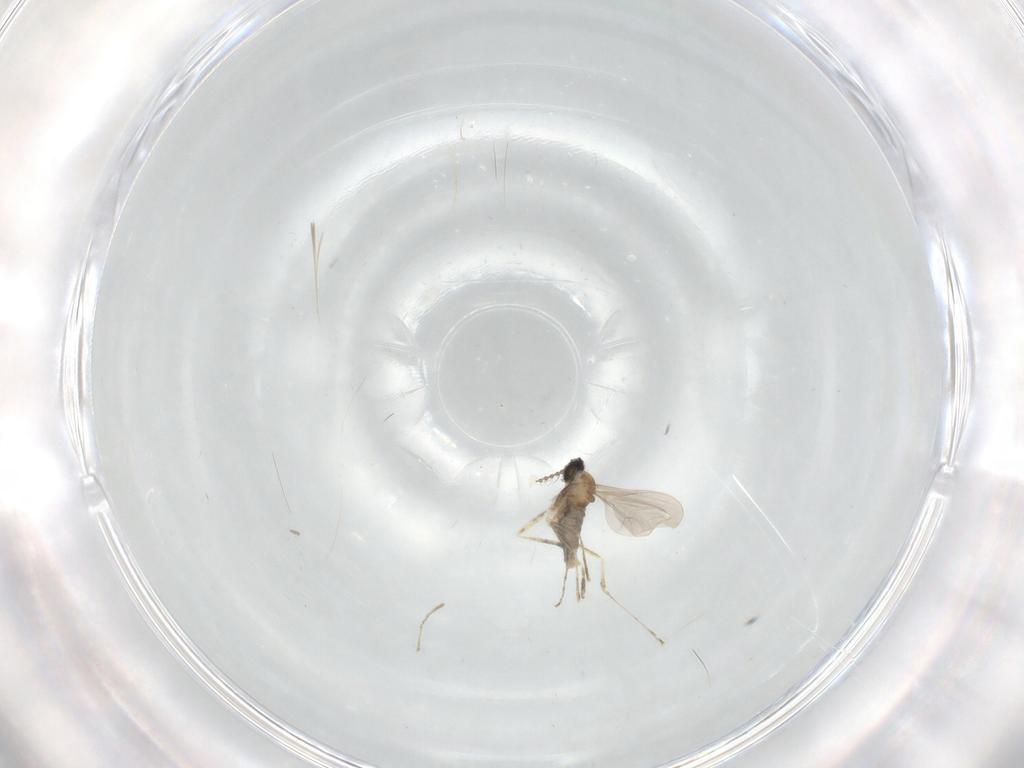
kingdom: Animalia
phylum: Arthropoda
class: Insecta
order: Diptera
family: Cecidomyiidae
